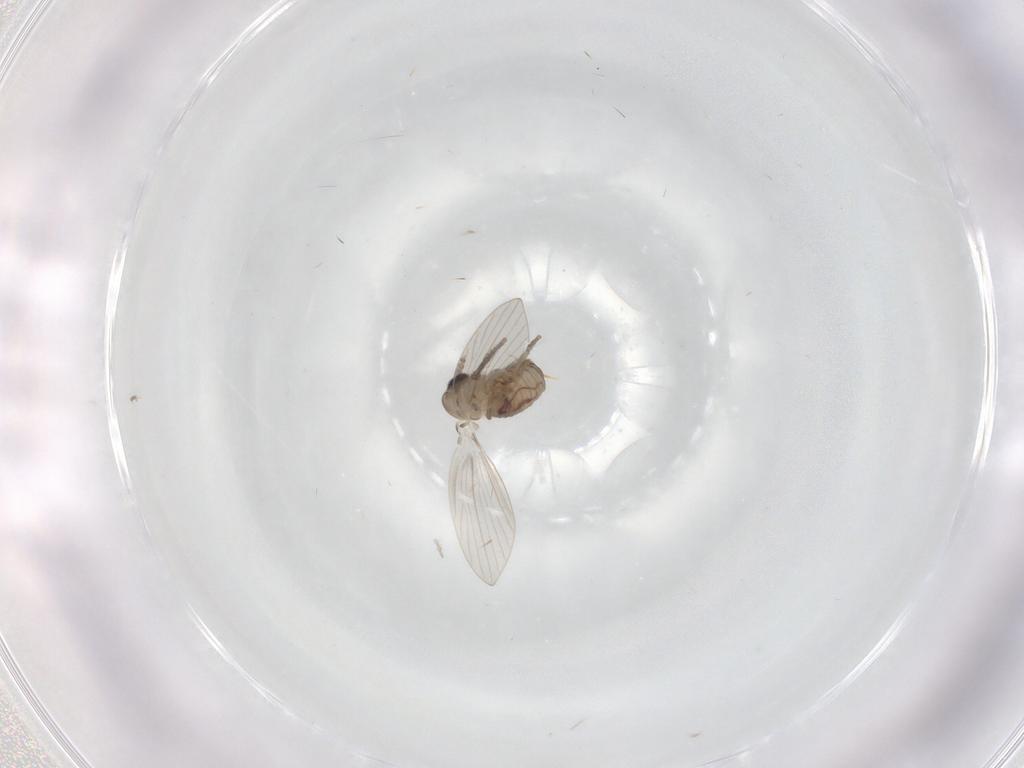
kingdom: Animalia
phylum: Arthropoda
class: Insecta
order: Diptera
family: Stratiomyidae
